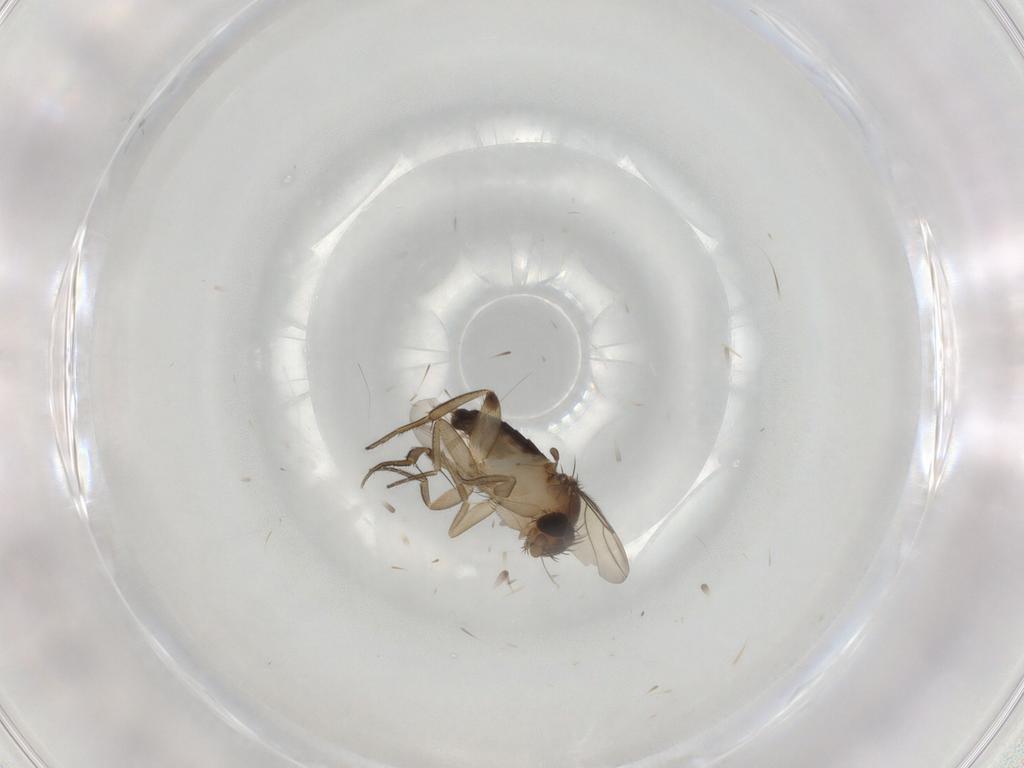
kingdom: Animalia
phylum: Arthropoda
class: Insecta
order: Diptera
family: Phoridae
